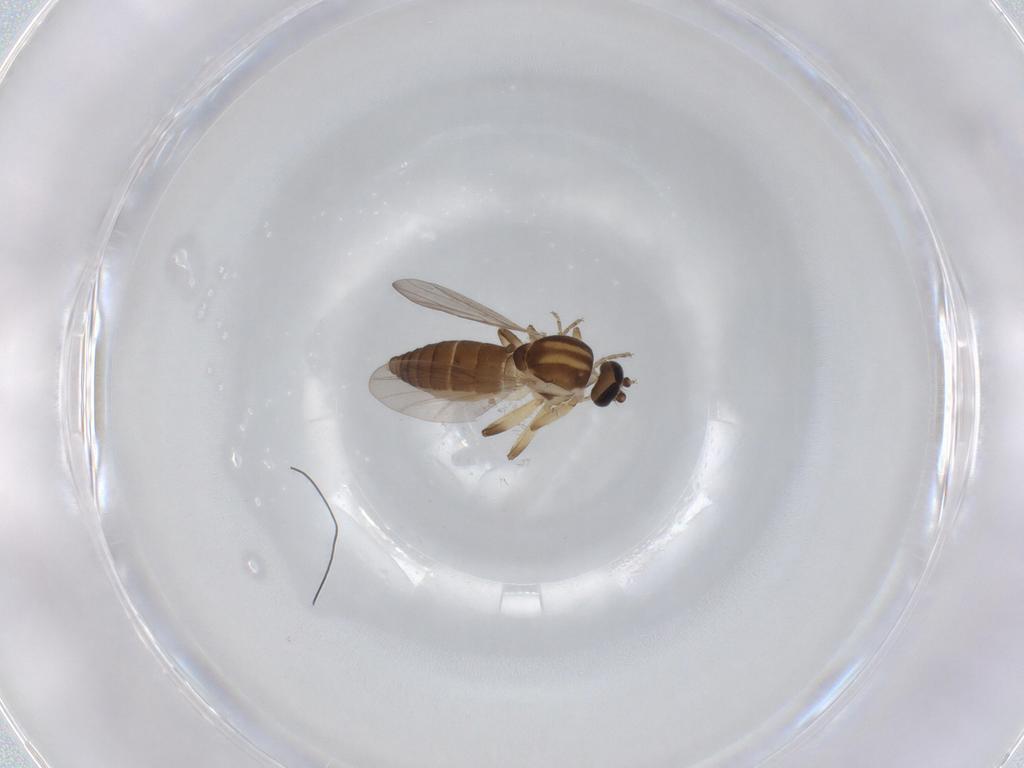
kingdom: Animalia
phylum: Arthropoda
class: Insecta
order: Diptera
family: Ceratopogonidae
